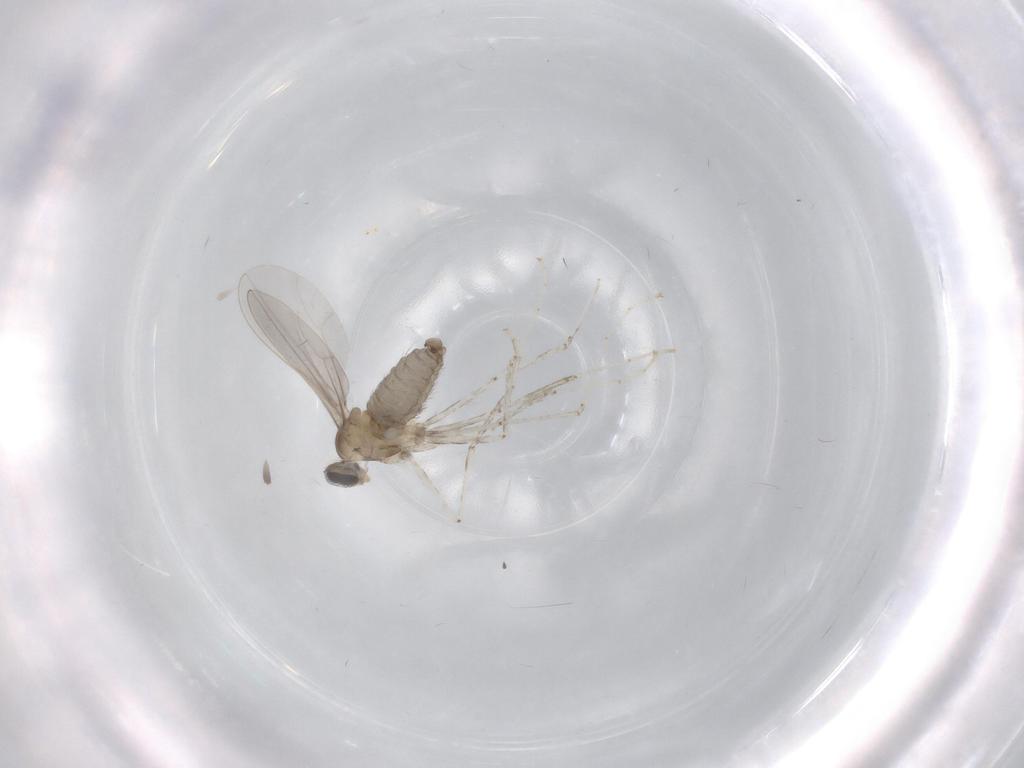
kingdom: Animalia
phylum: Arthropoda
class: Insecta
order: Diptera
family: Cecidomyiidae
